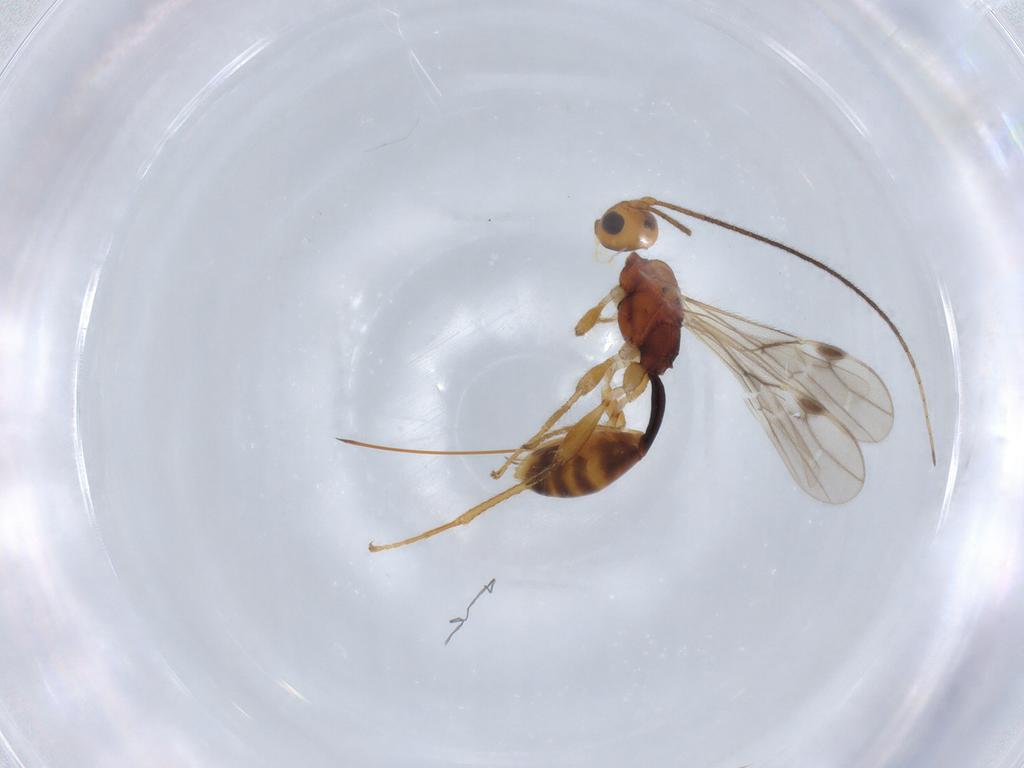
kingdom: Animalia
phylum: Arthropoda
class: Insecta
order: Hymenoptera
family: Braconidae
